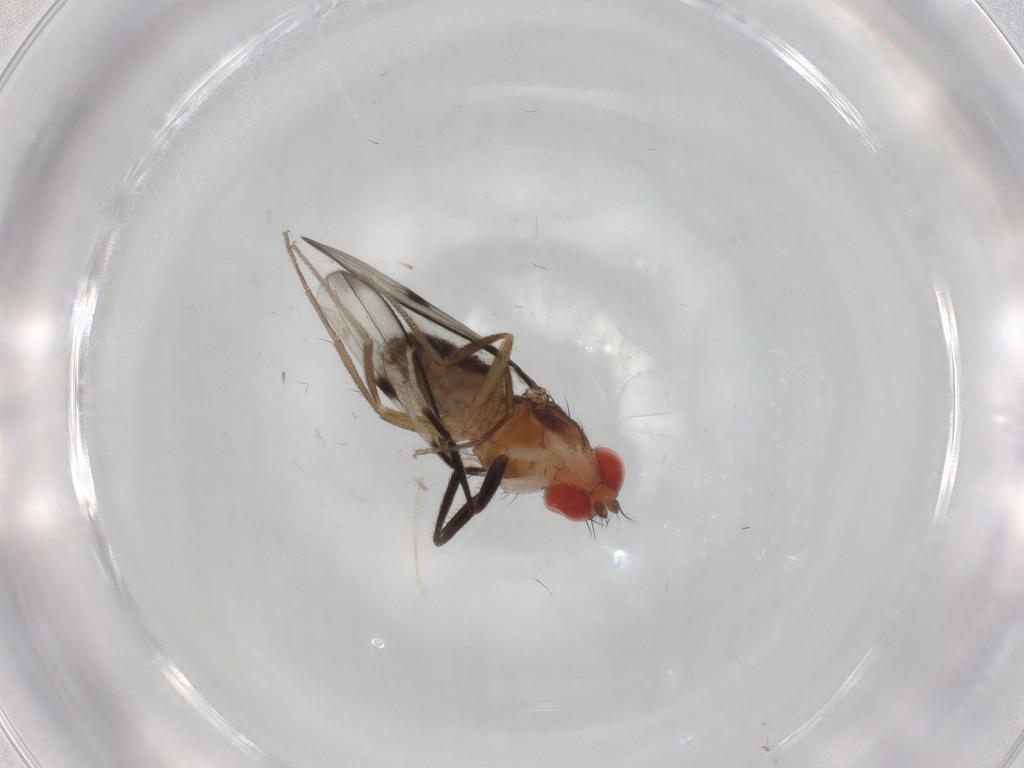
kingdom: Animalia
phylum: Arthropoda
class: Insecta
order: Diptera
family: Drosophilidae
